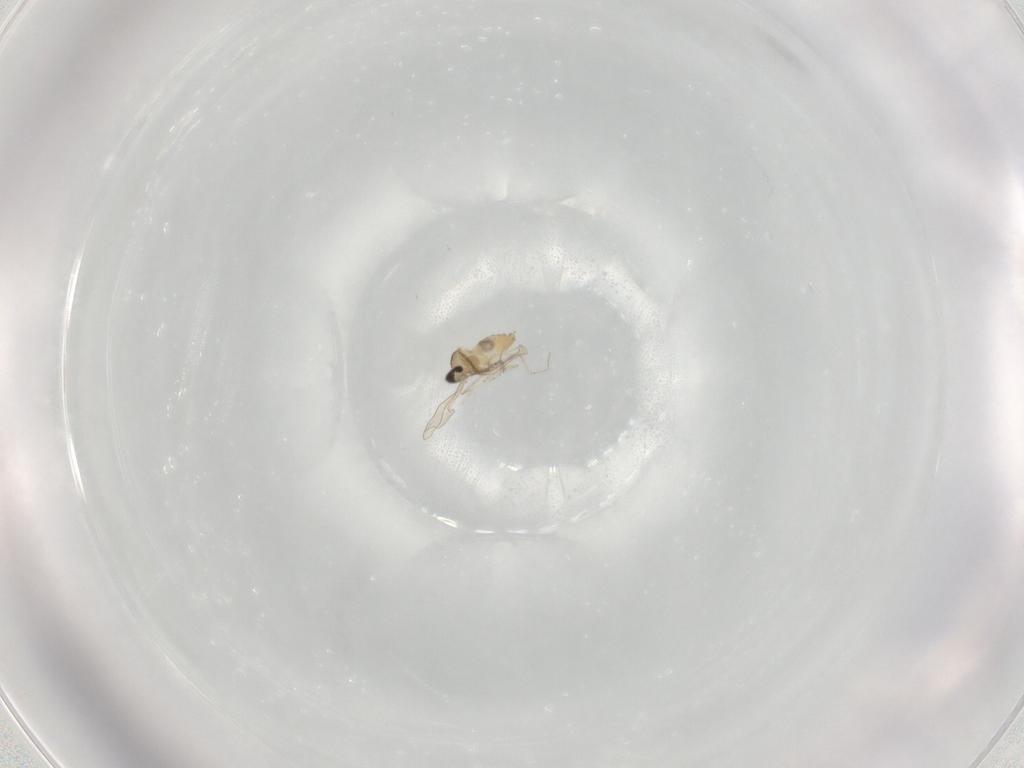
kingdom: Animalia
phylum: Arthropoda
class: Insecta
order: Diptera
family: Cecidomyiidae
